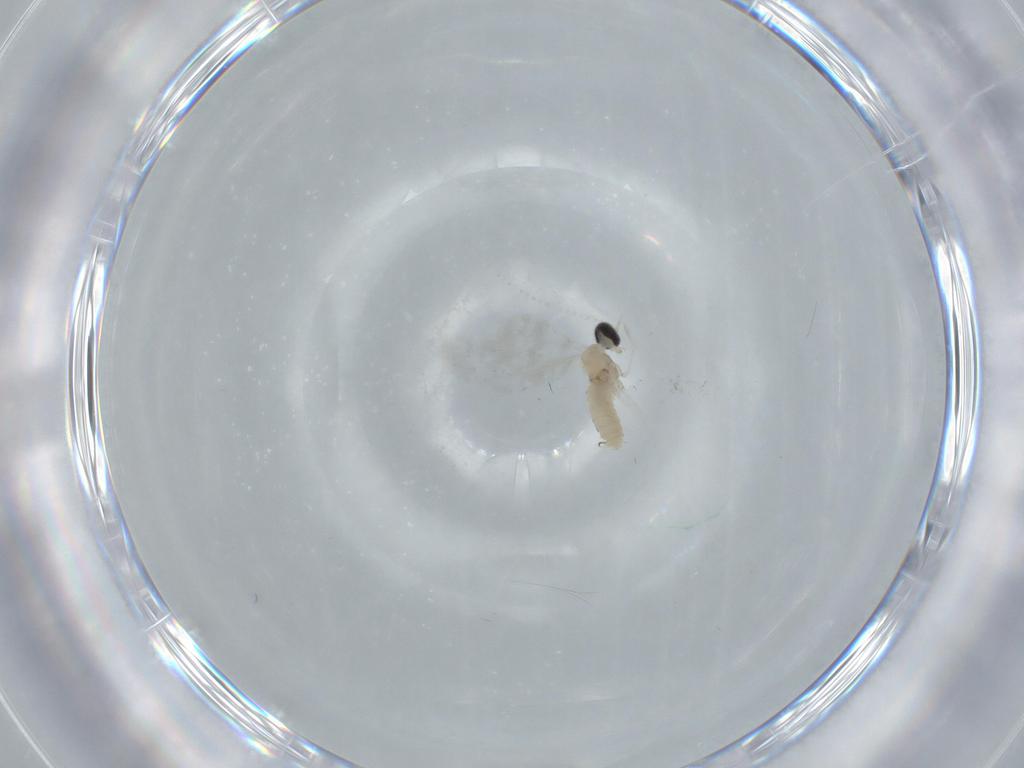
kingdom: Animalia
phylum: Arthropoda
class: Insecta
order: Diptera
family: Cecidomyiidae
